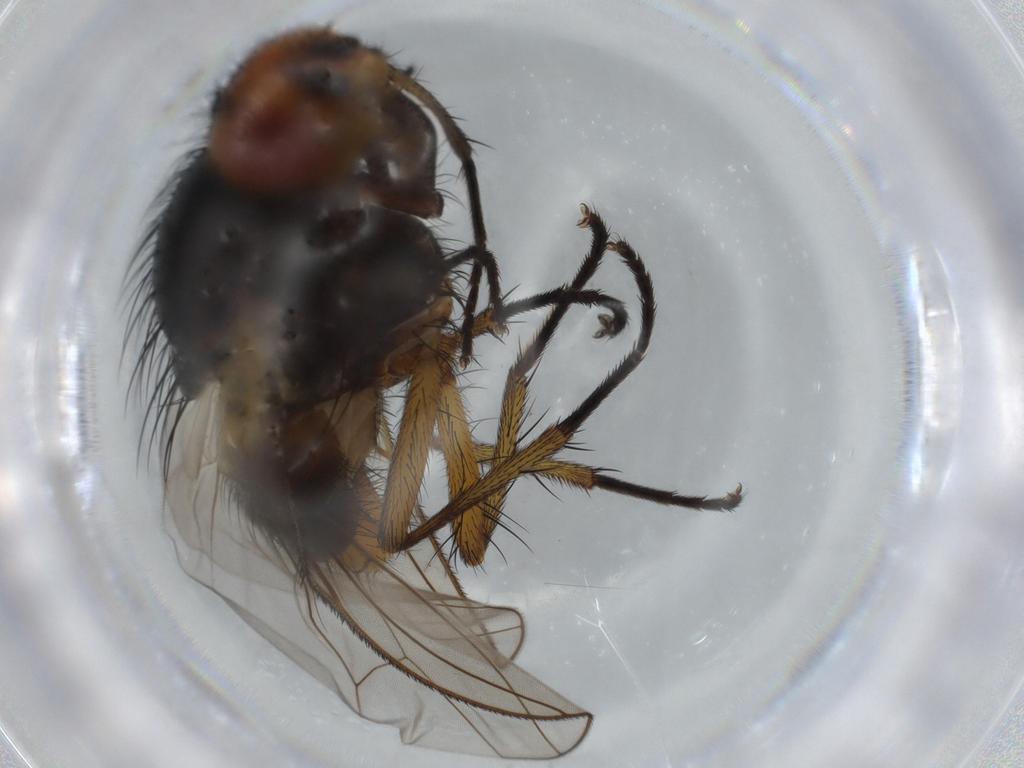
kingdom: Animalia
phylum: Arthropoda
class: Insecta
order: Diptera
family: Anthomyiidae
